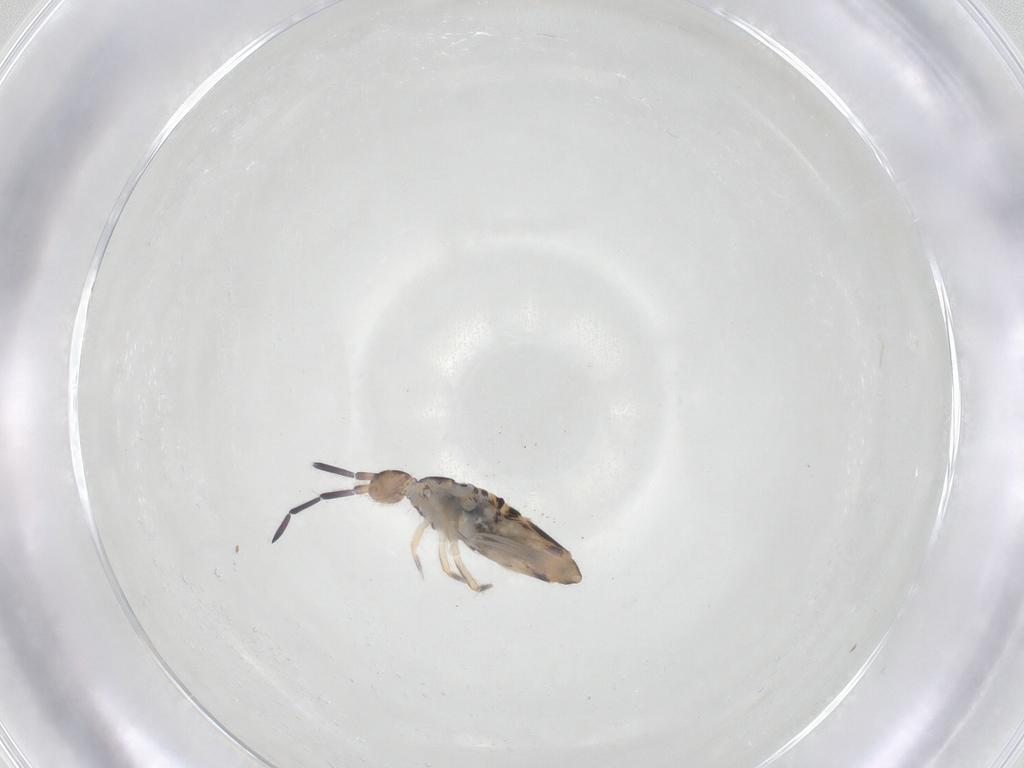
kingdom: Animalia
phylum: Arthropoda
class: Collembola
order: Entomobryomorpha
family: Entomobryidae
